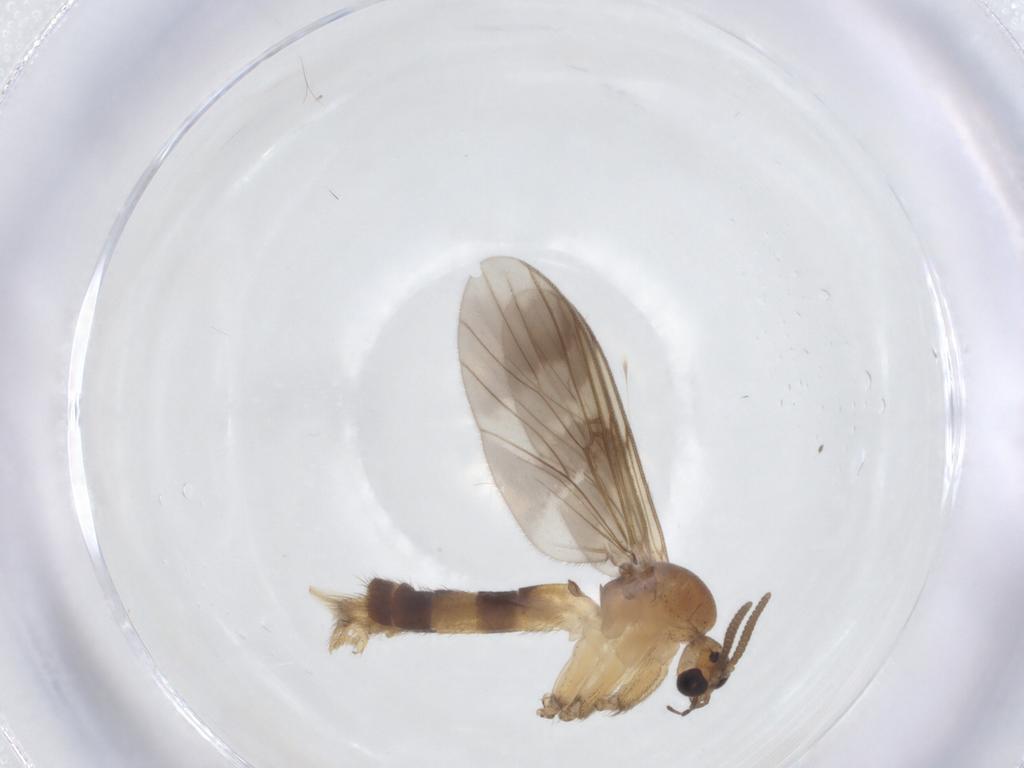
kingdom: Animalia
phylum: Arthropoda
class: Insecta
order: Diptera
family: Mycetophilidae
